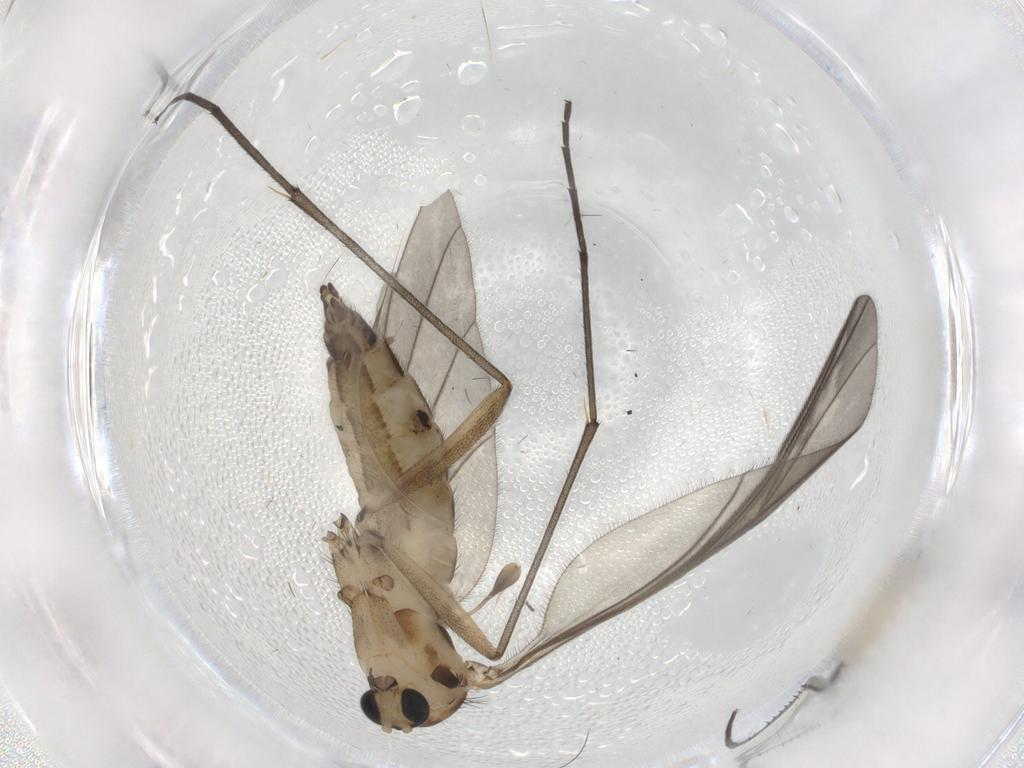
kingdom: Animalia
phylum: Arthropoda
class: Insecta
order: Diptera
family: Sciaridae
